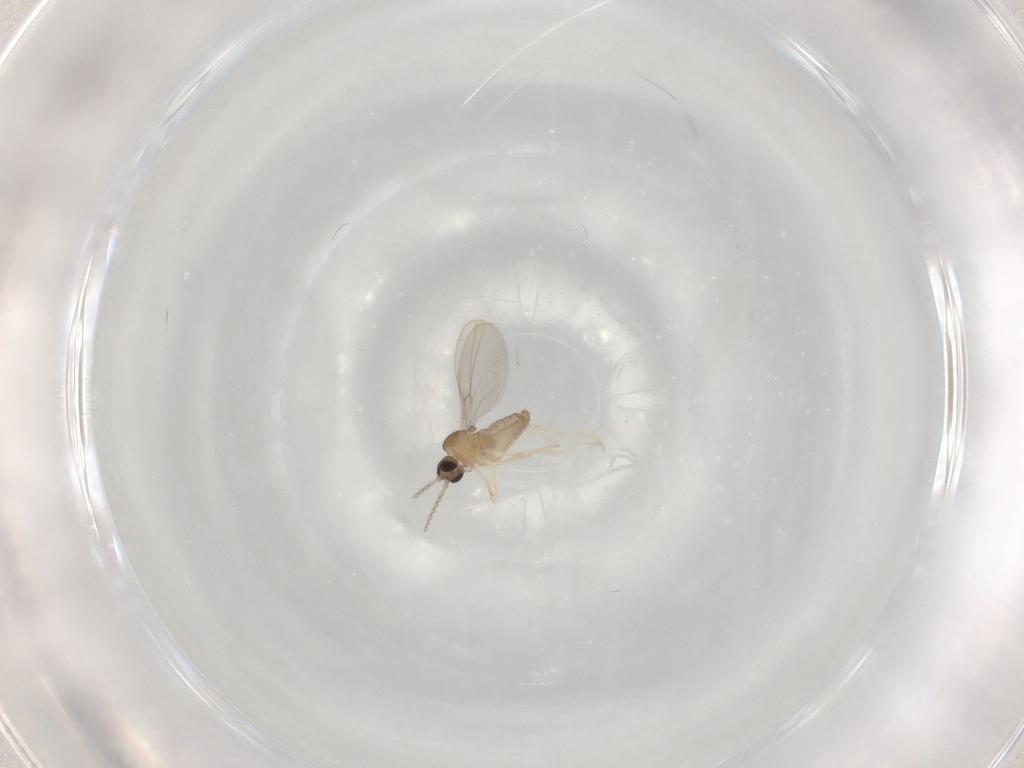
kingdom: Animalia
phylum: Arthropoda
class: Insecta
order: Diptera
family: Cecidomyiidae
